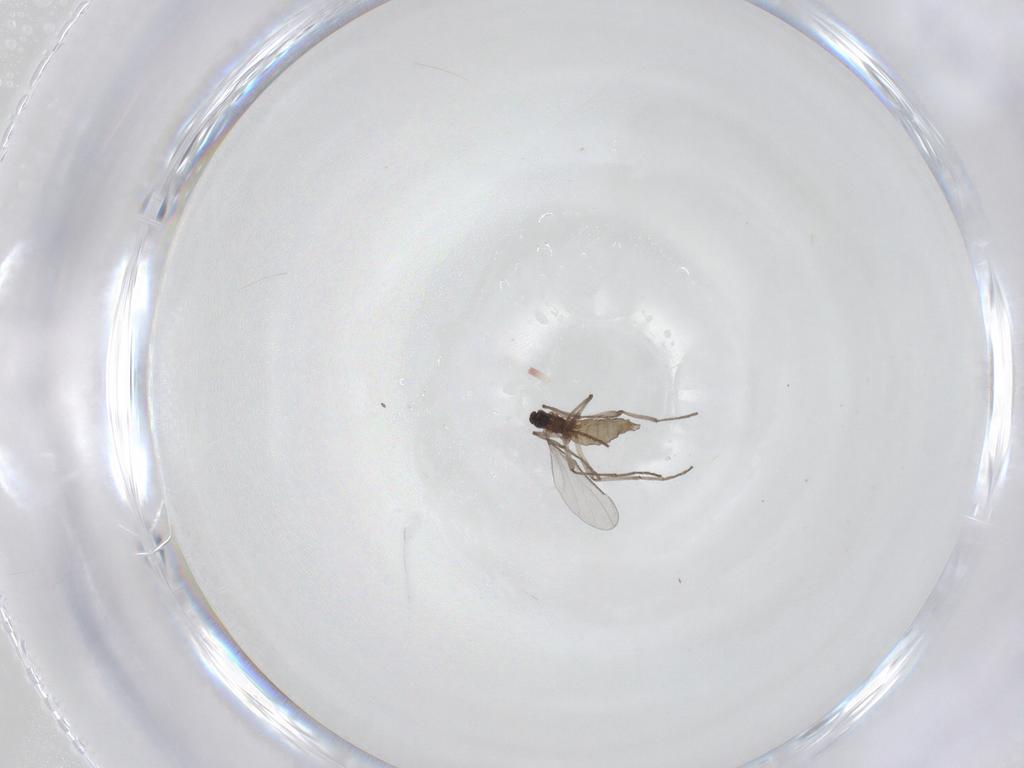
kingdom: Animalia
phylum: Arthropoda
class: Insecta
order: Diptera
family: Cecidomyiidae
